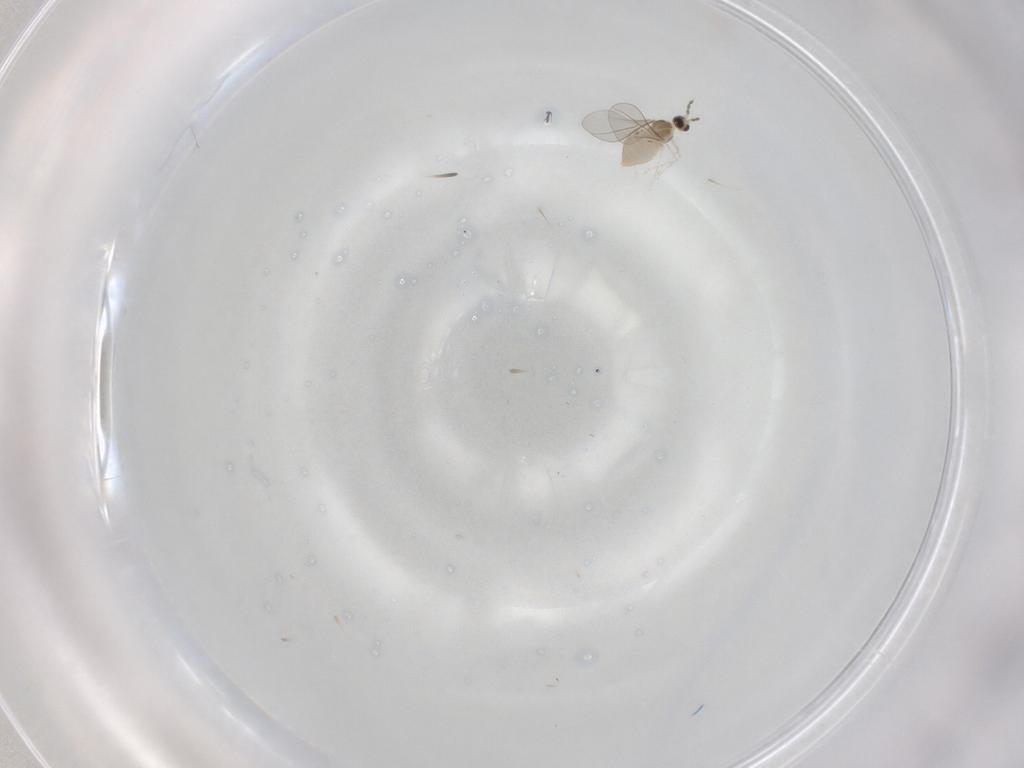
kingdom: Animalia
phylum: Arthropoda
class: Insecta
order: Diptera
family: Cecidomyiidae
